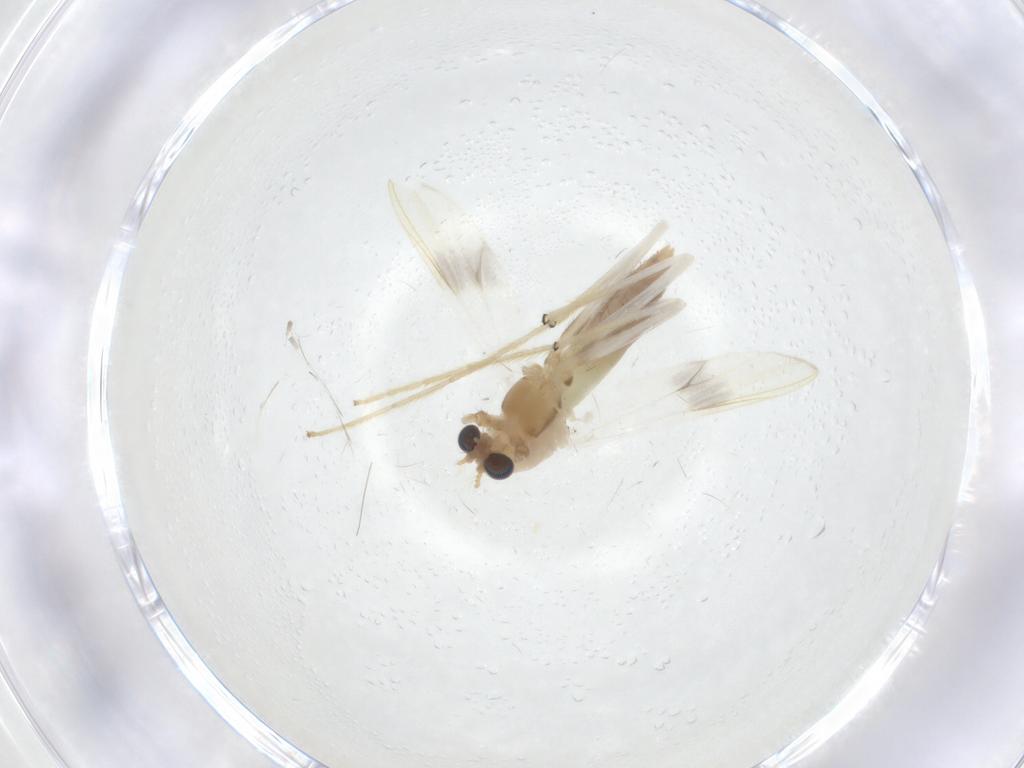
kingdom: Animalia
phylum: Arthropoda
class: Insecta
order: Diptera
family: Chironomidae
